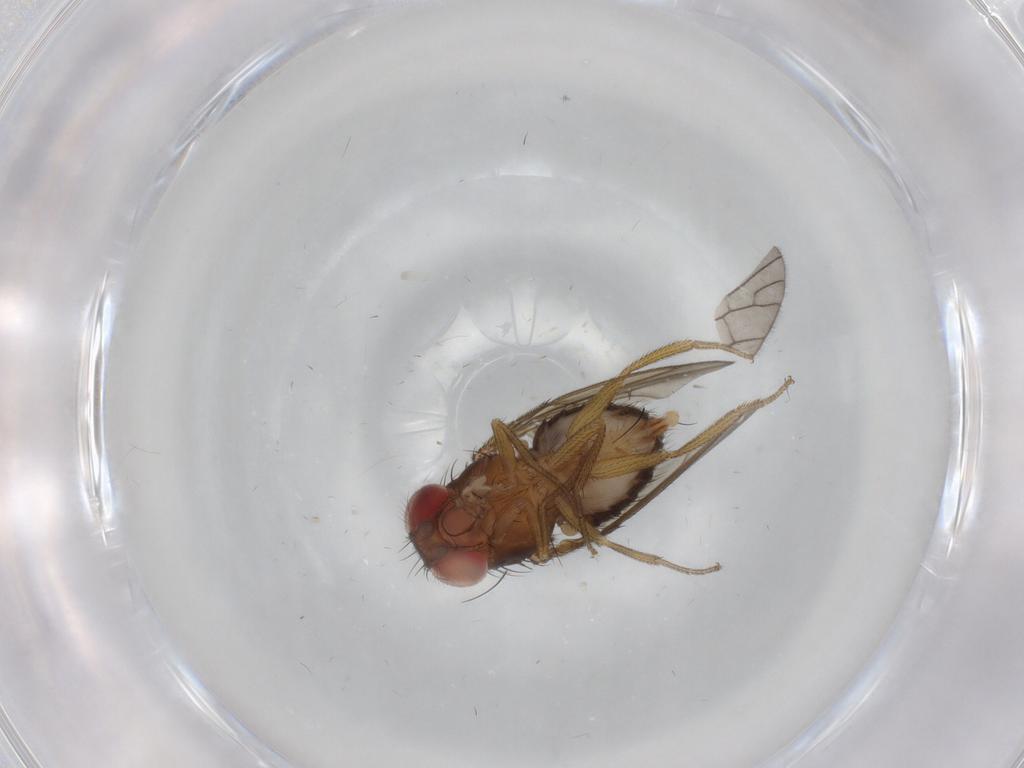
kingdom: Animalia
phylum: Arthropoda
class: Insecta
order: Diptera
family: Drosophilidae
